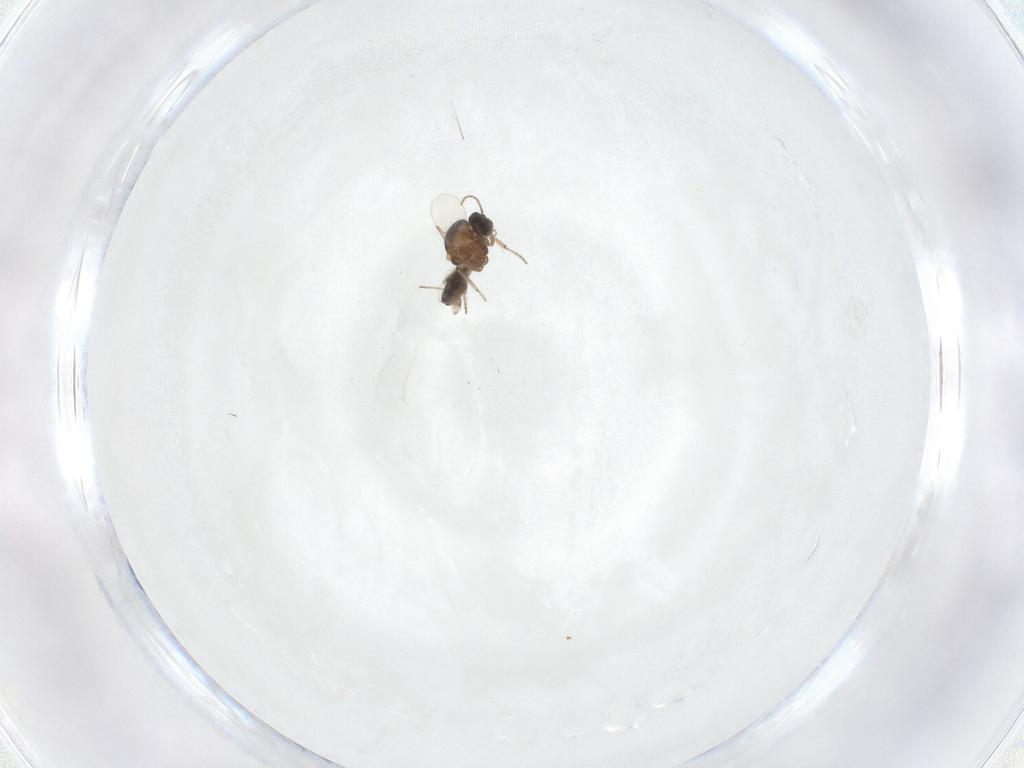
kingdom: Animalia
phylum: Arthropoda
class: Insecta
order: Diptera
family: Ceratopogonidae
